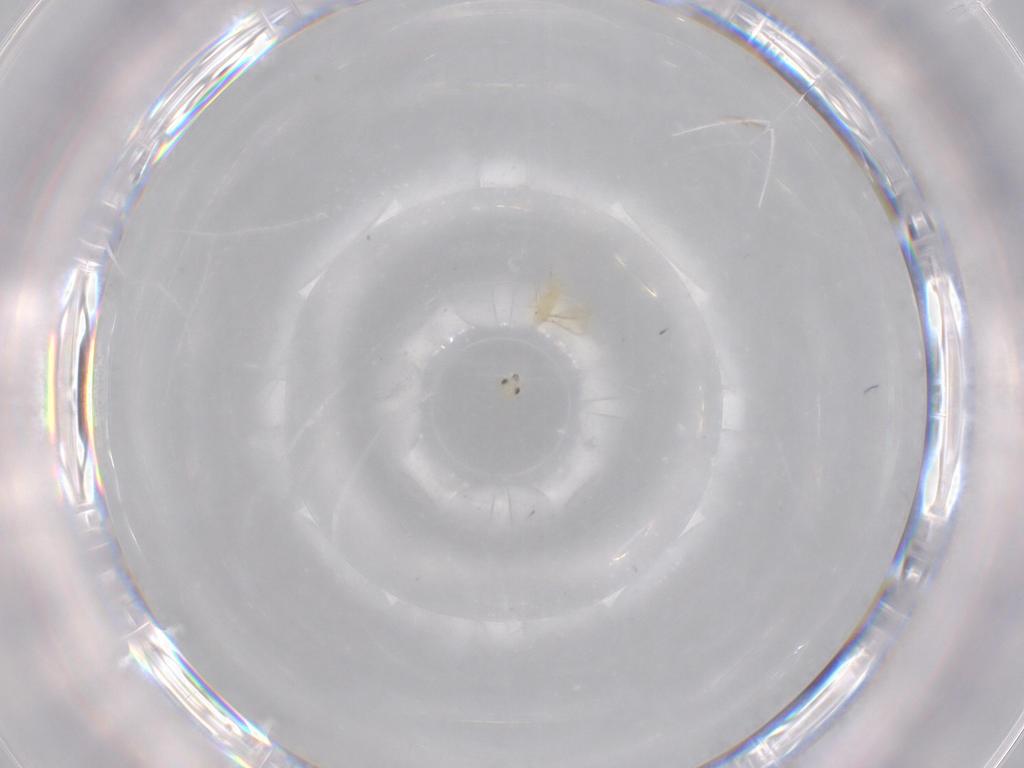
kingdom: Animalia
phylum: Arthropoda
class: Insecta
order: Hymenoptera
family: Trichogrammatidae
